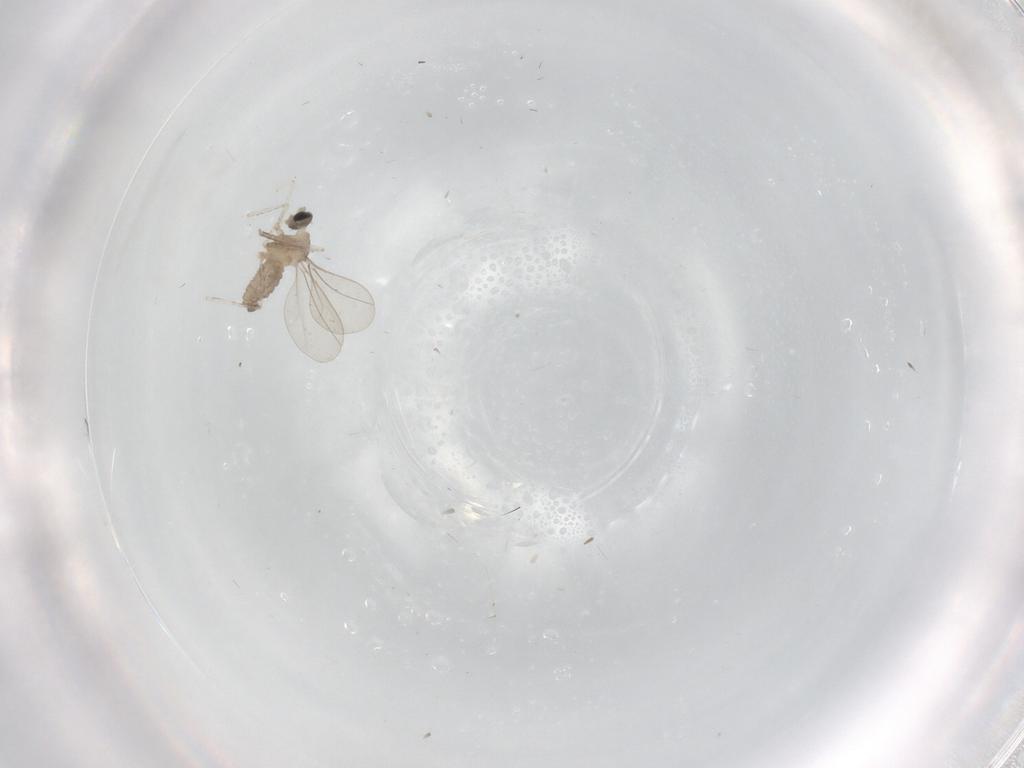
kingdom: Animalia
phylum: Arthropoda
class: Insecta
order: Diptera
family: Cecidomyiidae
